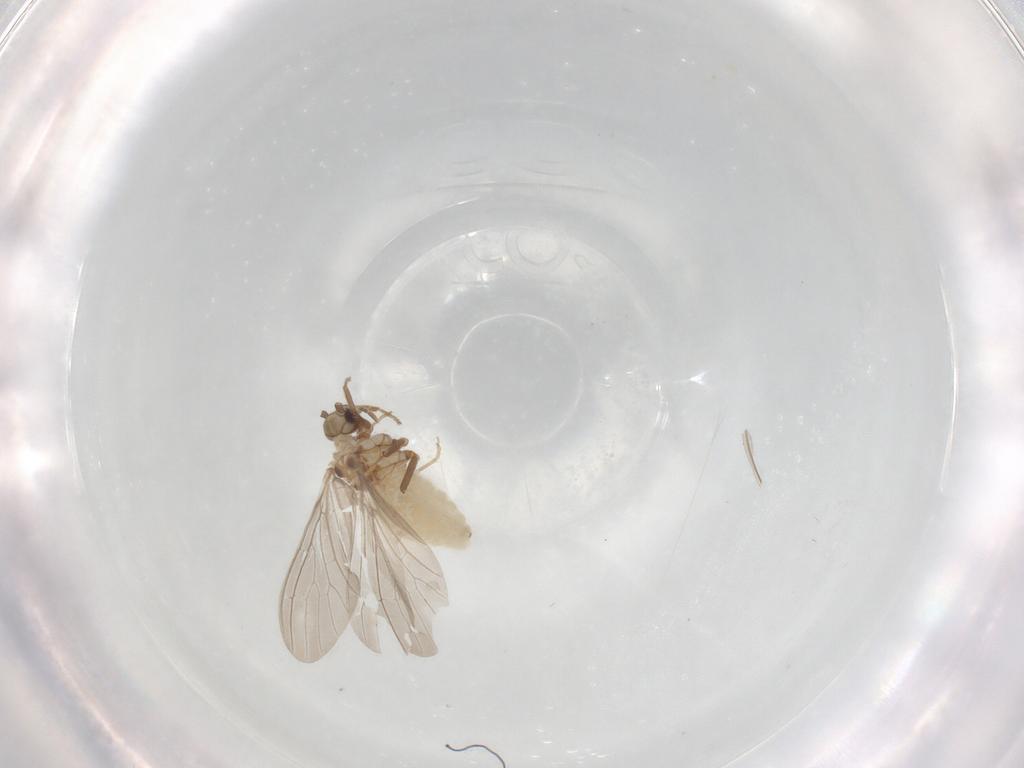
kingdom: Animalia
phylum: Arthropoda
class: Insecta
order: Neuroptera
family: Coniopterygidae
